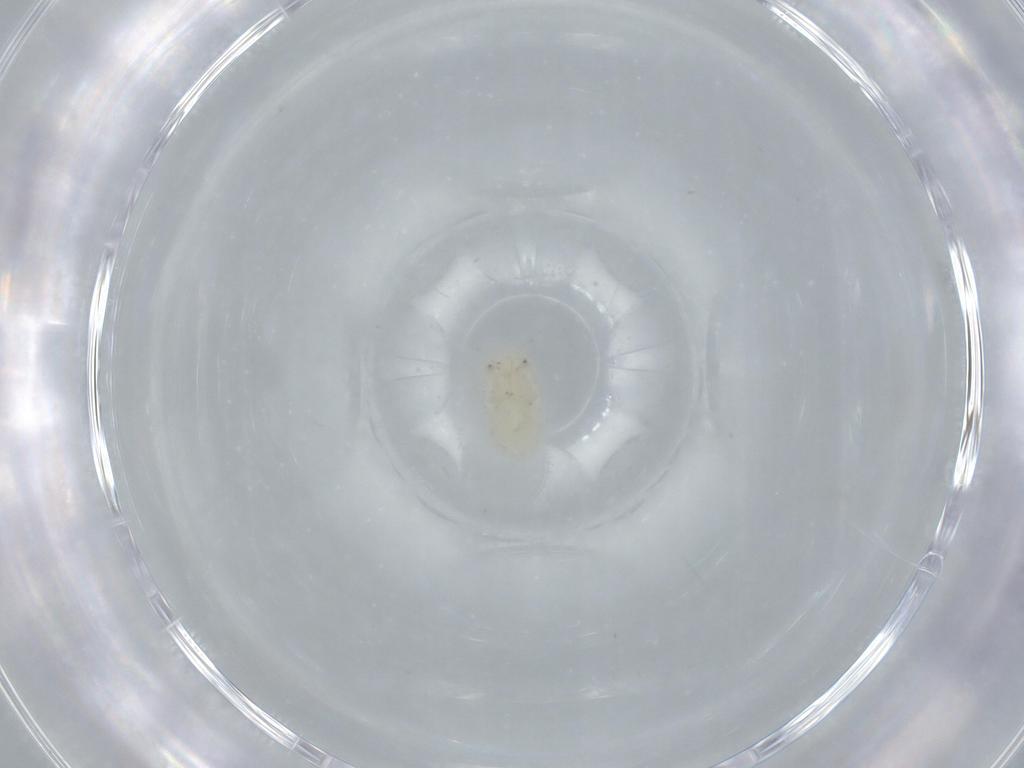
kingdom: Animalia
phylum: Arthropoda
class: Insecta
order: Hemiptera
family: Triozidae
